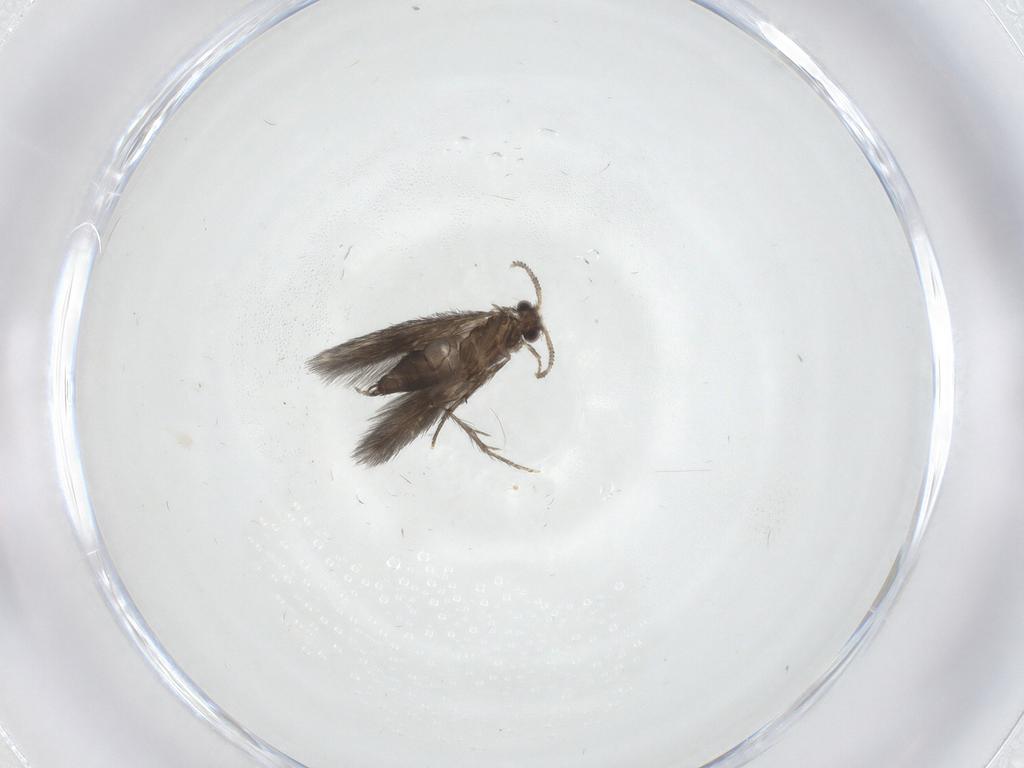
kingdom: Animalia
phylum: Arthropoda
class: Insecta
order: Trichoptera
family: Hydroptilidae
